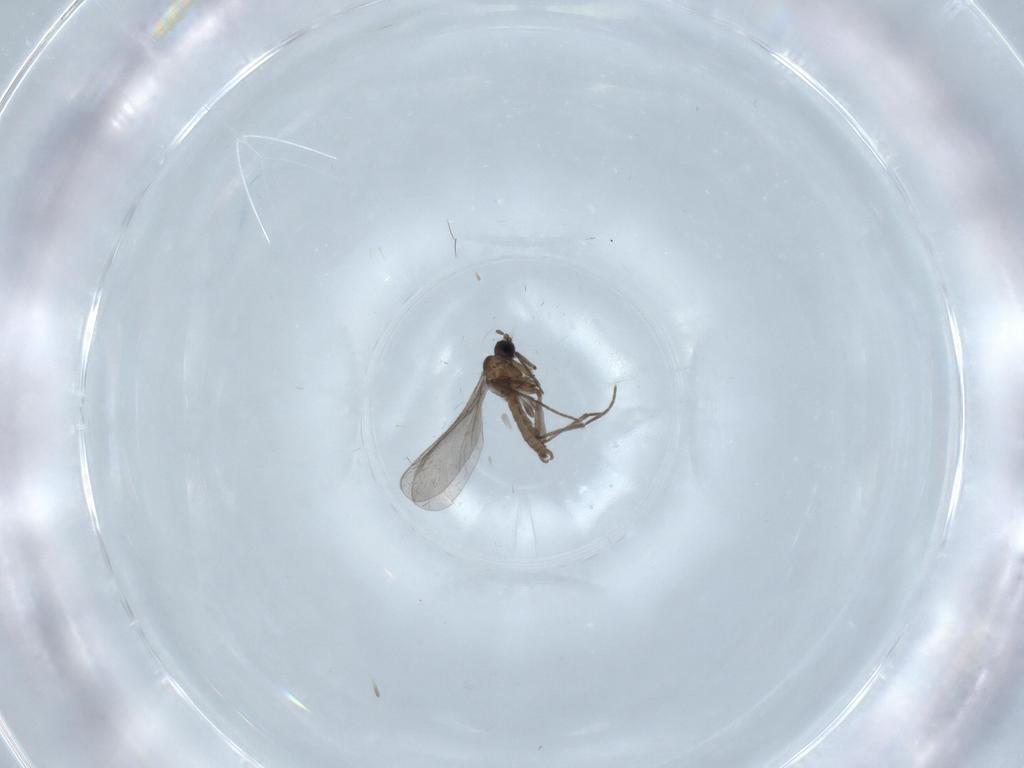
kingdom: Animalia
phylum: Arthropoda
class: Insecta
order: Diptera
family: Sciaridae
